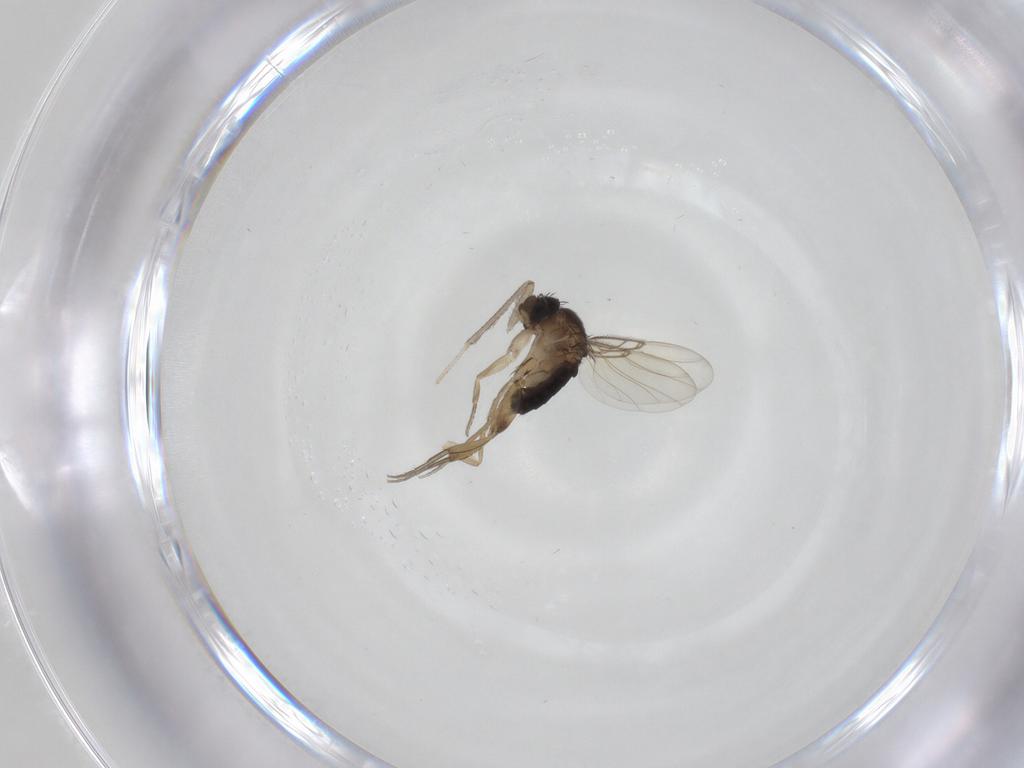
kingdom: Animalia
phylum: Arthropoda
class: Insecta
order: Diptera
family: Phoridae
